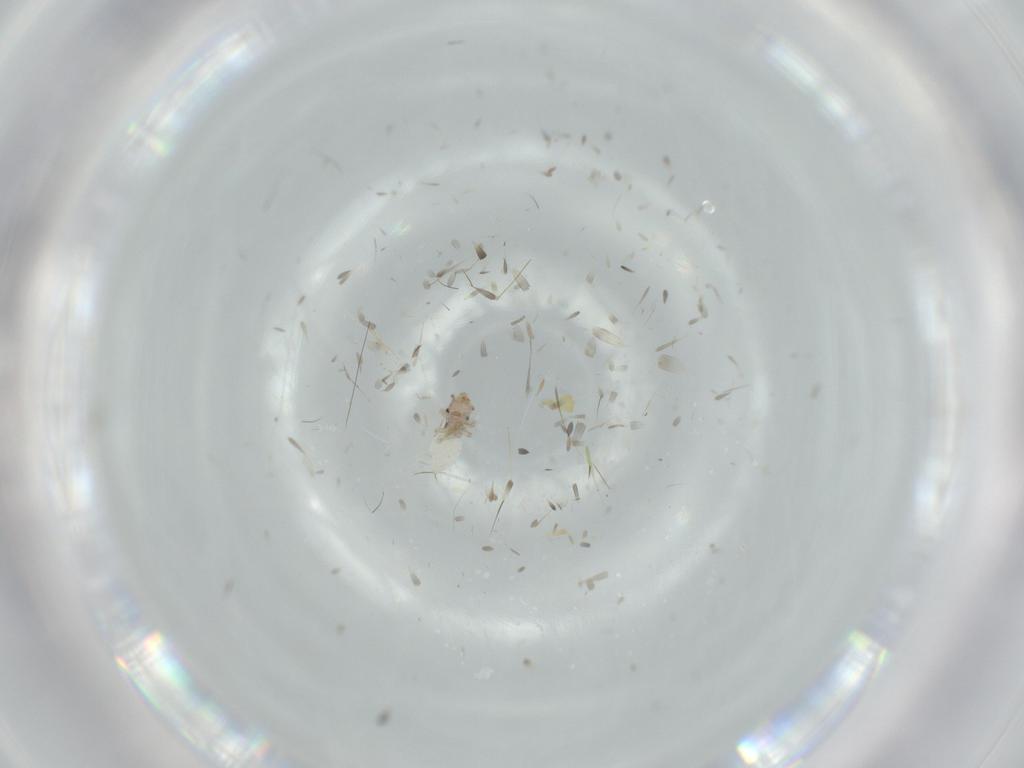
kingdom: Animalia
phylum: Arthropoda
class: Insecta
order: Psocodea
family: Lepidopsocidae
